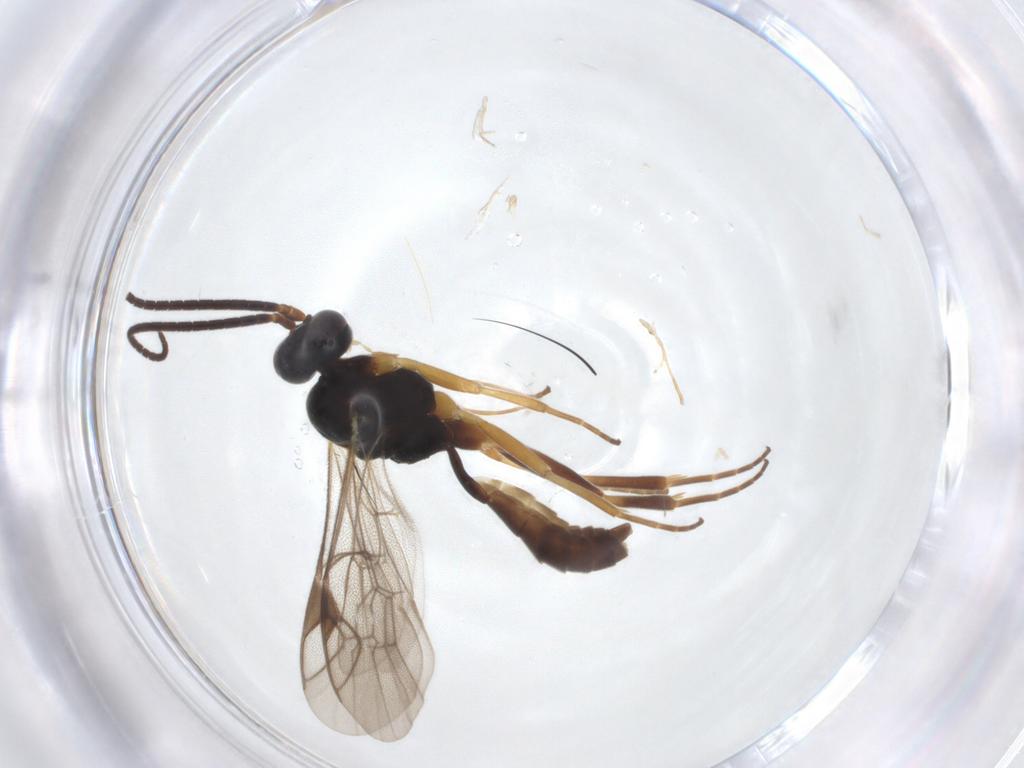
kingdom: Animalia
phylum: Arthropoda
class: Insecta
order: Hymenoptera
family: Ichneumonidae
